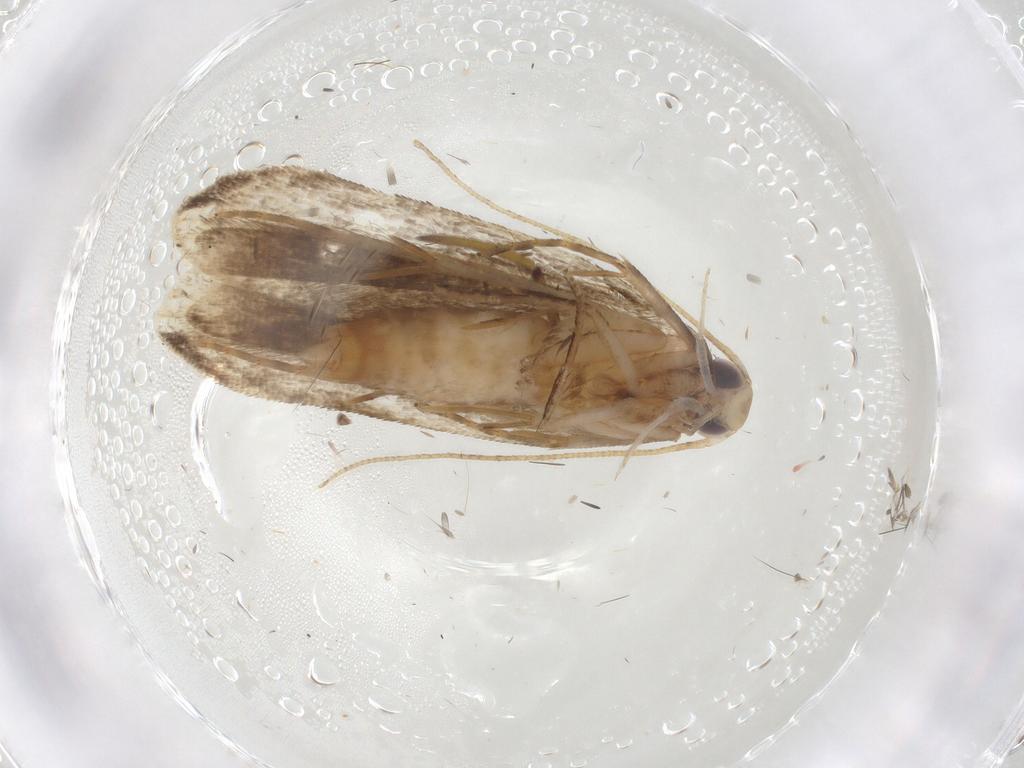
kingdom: Animalia
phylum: Arthropoda
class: Insecta
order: Lepidoptera
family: Gelechiidae
